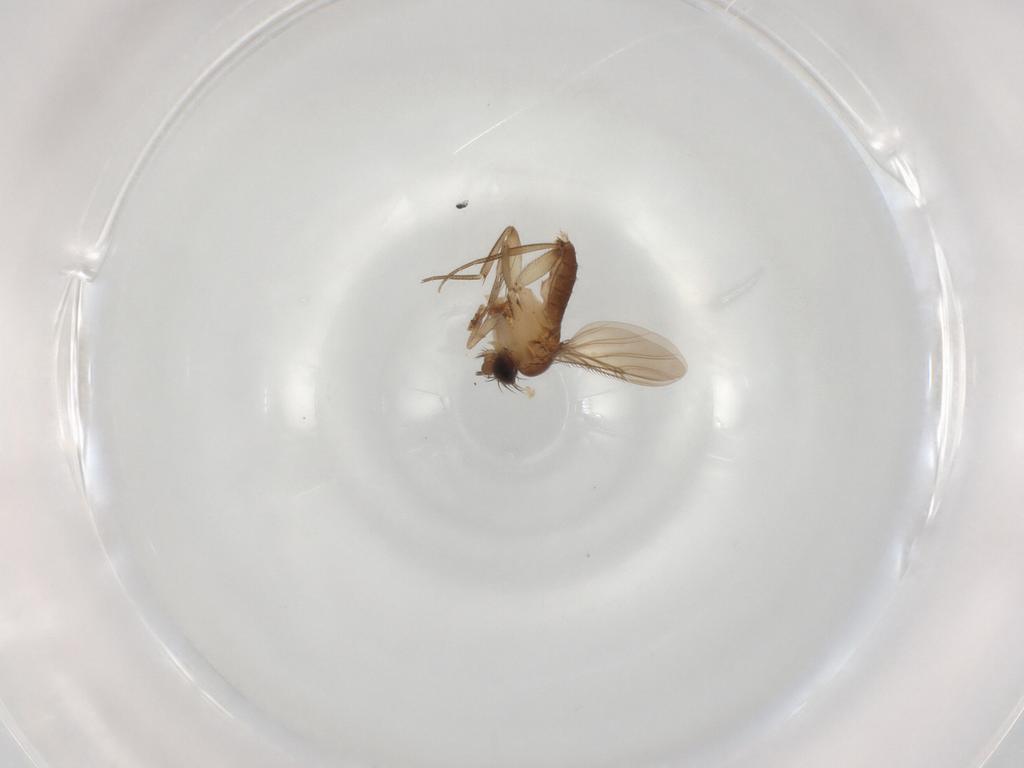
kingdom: Animalia
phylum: Arthropoda
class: Insecta
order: Diptera
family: Phoridae
